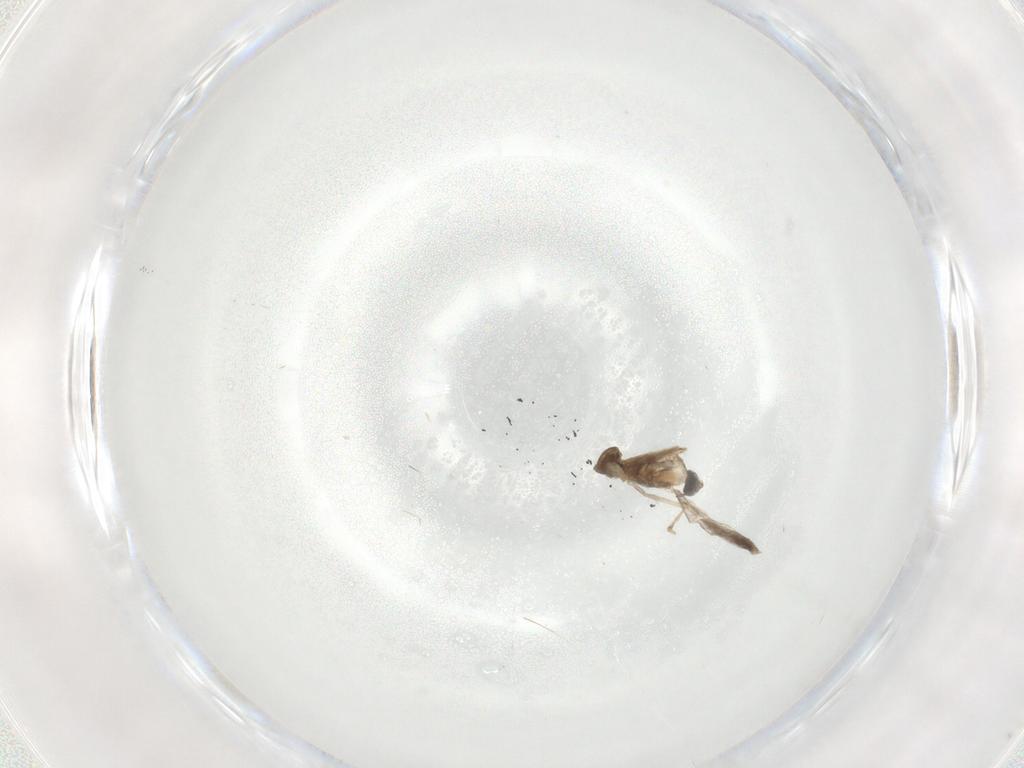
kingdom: Animalia
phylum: Arthropoda
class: Insecta
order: Diptera
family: Cecidomyiidae
